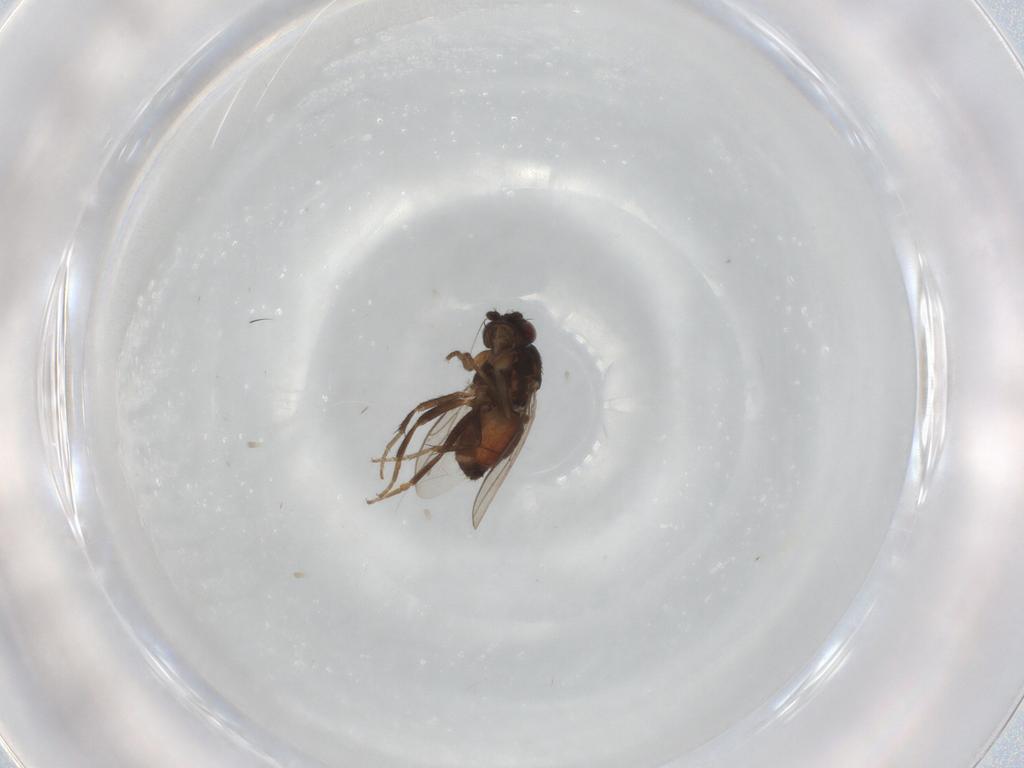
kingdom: Animalia
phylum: Arthropoda
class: Insecta
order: Diptera
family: Sphaeroceridae
